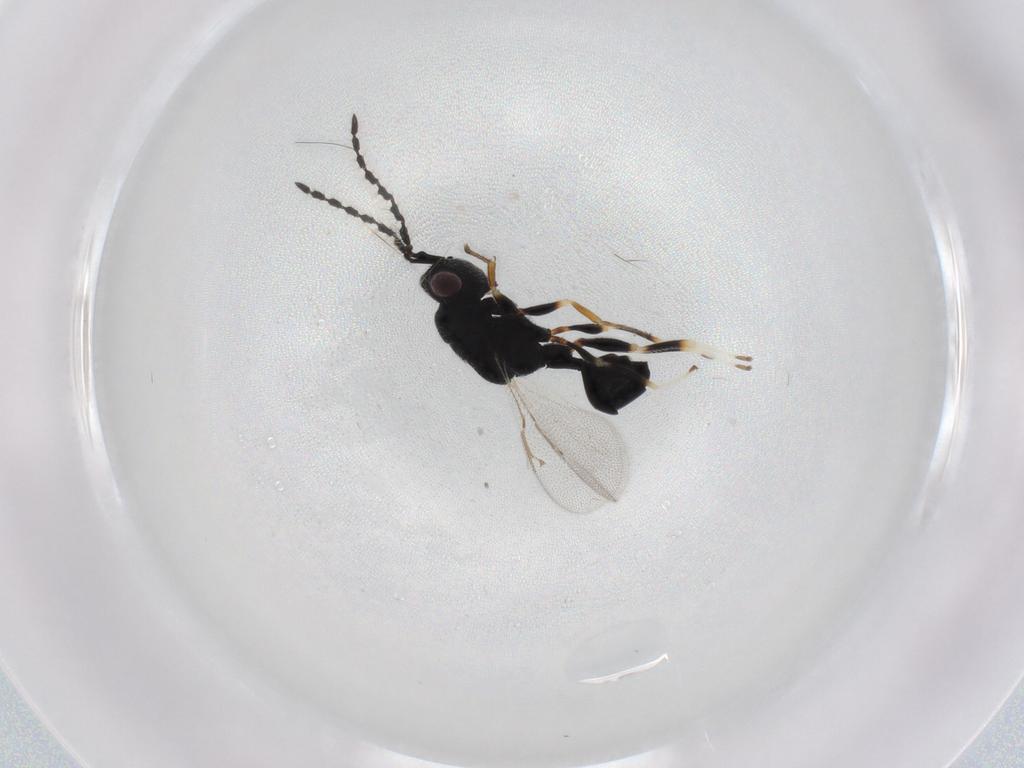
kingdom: Animalia
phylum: Arthropoda
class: Insecta
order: Hymenoptera
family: Eurytomidae
